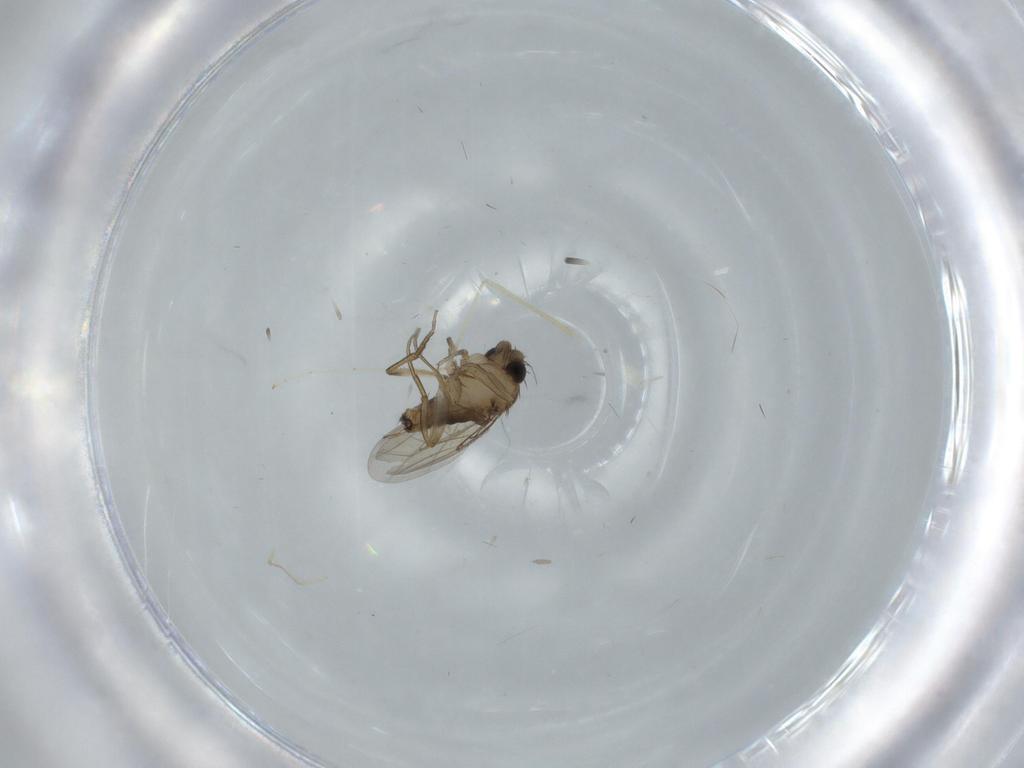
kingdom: Animalia
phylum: Arthropoda
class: Insecta
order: Diptera
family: Phoridae
